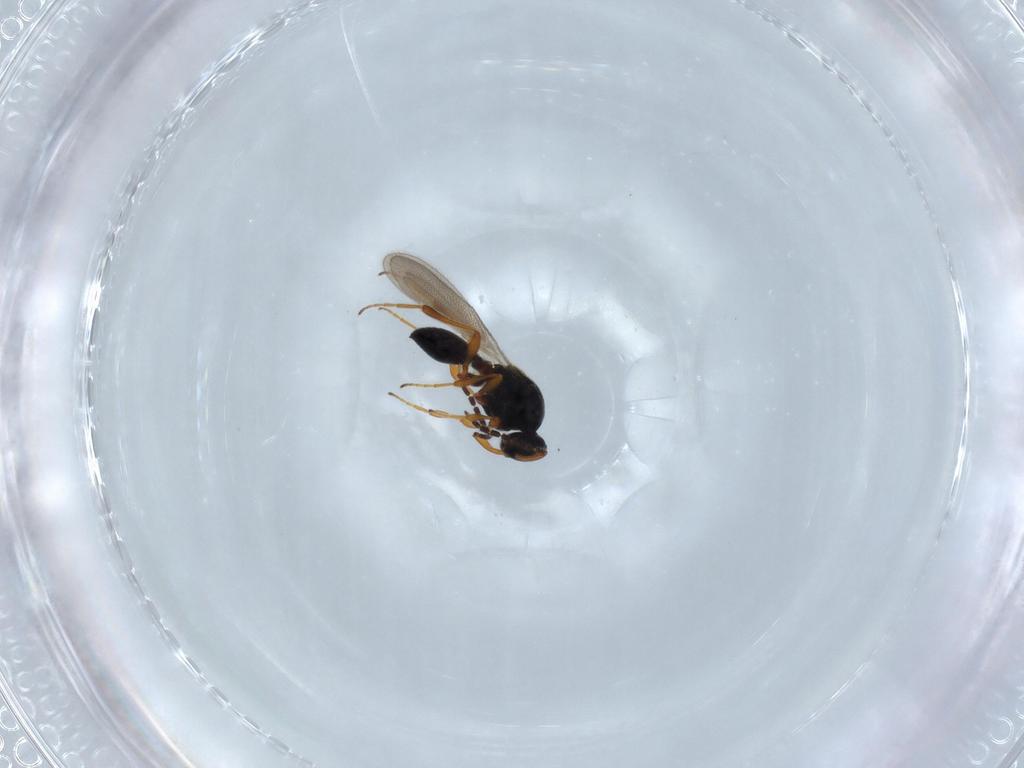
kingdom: Animalia
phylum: Arthropoda
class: Insecta
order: Hymenoptera
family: Platygastridae
